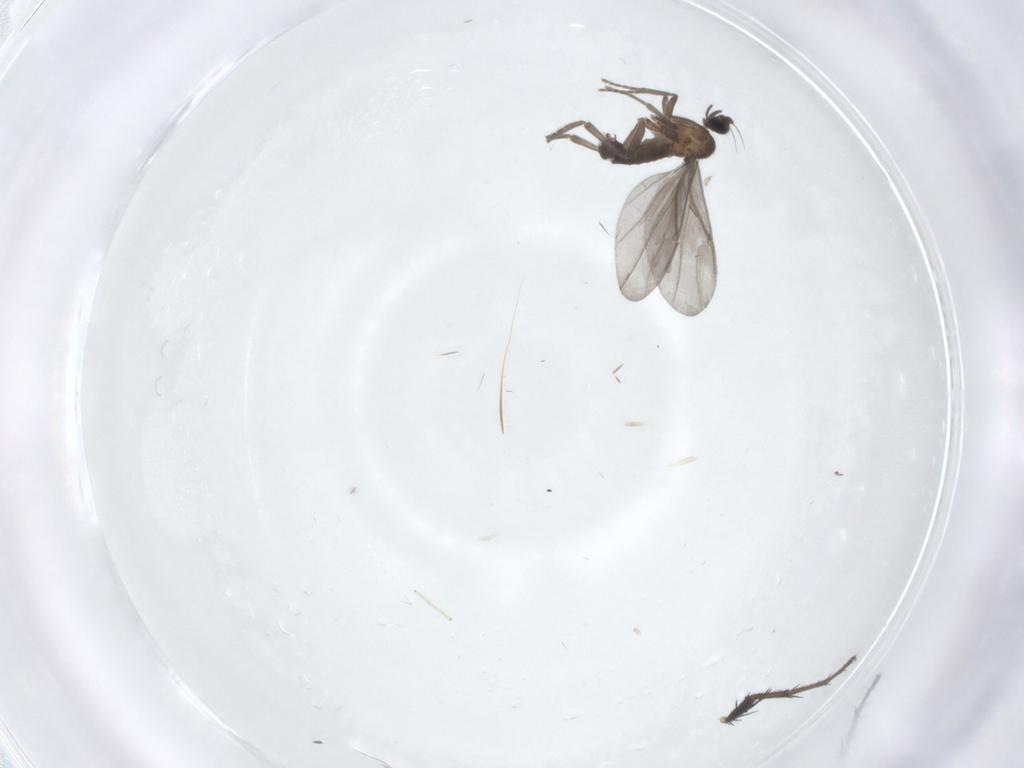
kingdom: Animalia
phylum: Arthropoda
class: Insecta
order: Diptera
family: Phoridae
